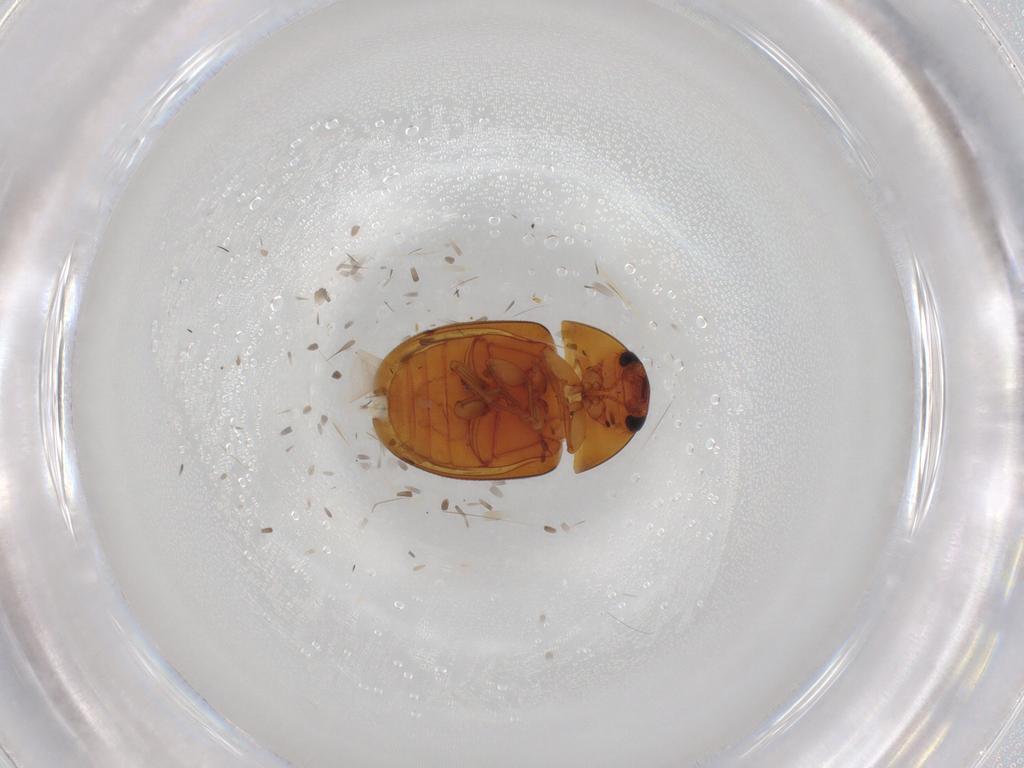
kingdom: Animalia
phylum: Arthropoda
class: Insecta
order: Coleoptera
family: Phalacridae
